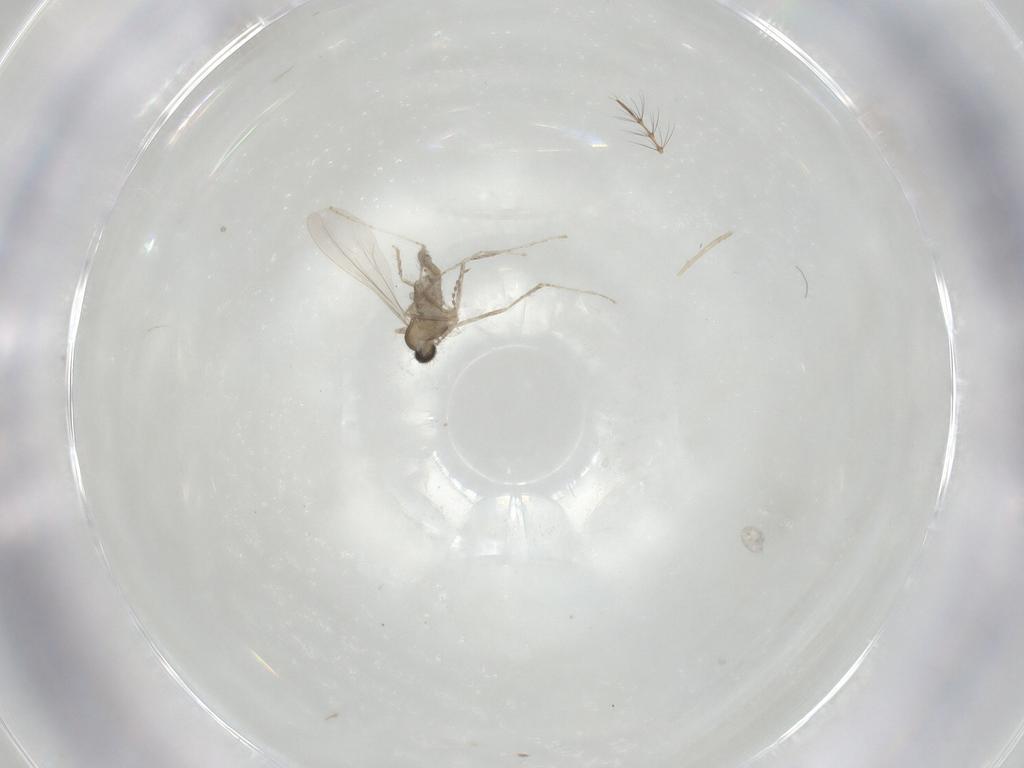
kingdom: Animalia
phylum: Arthropoda
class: Insecta
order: Diptera
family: Cecidomyiidae
